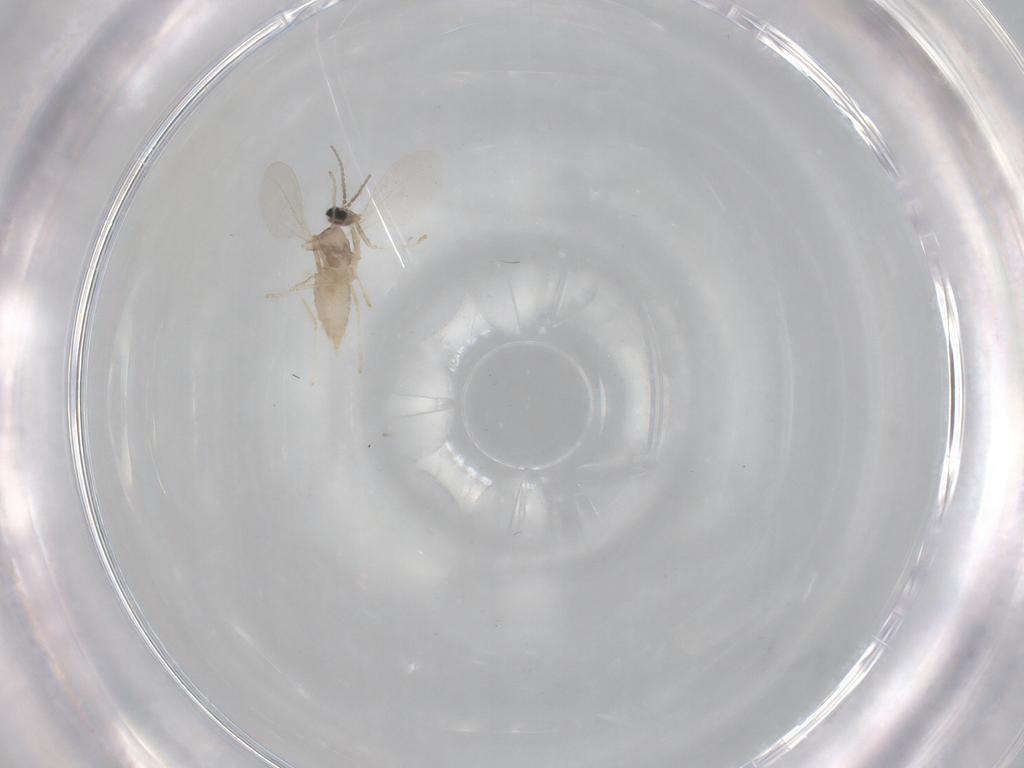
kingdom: Animalia
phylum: Arthropoda
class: Insecta
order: Diptera
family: Cecidomyiidae
